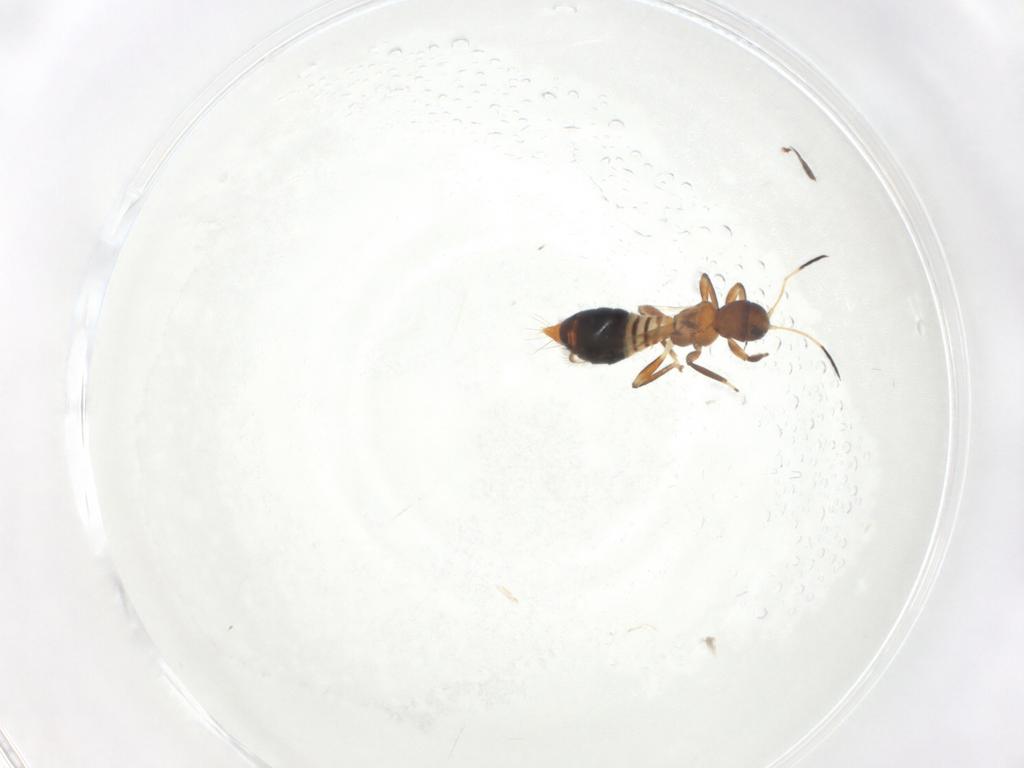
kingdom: Animalia
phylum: Arthropoda
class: Insecta
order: Thysanoptera
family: Aeolothripidae
